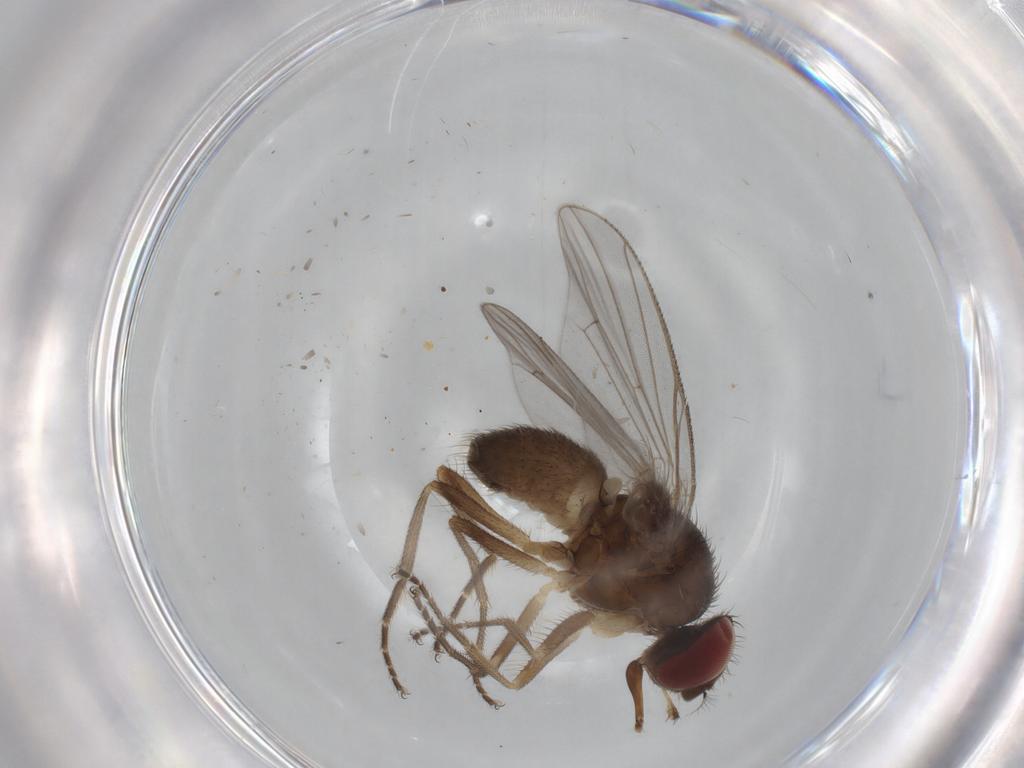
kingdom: Animalia
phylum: Arthropoda
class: Insecta
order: Diptera
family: Muscidae
